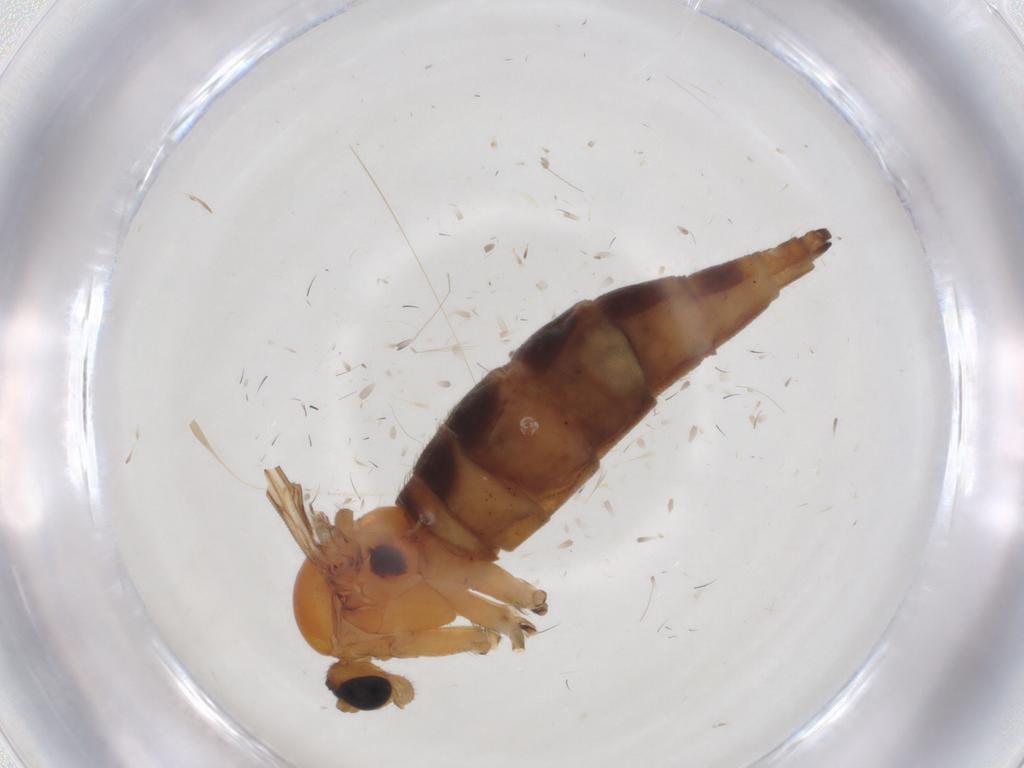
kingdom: Animalia
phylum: Arthropoda
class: Insecta
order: Diptera
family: Sciaridae
